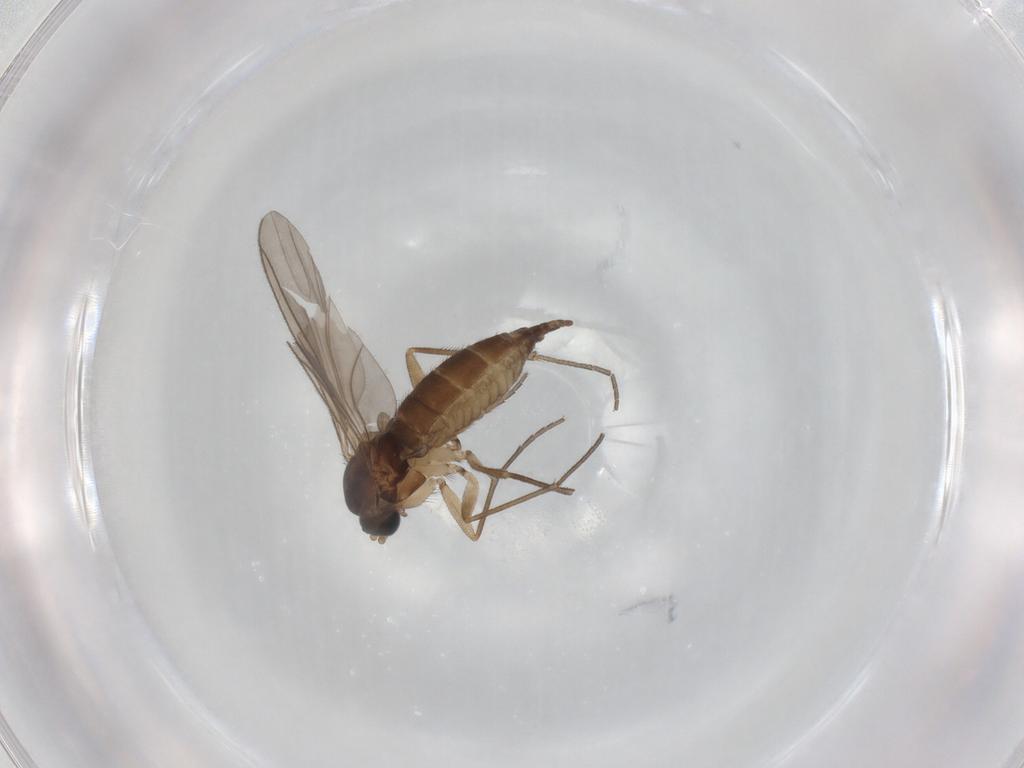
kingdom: Animalia
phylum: Arthropoda
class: Insecta
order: Diptera
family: Sciaridae
